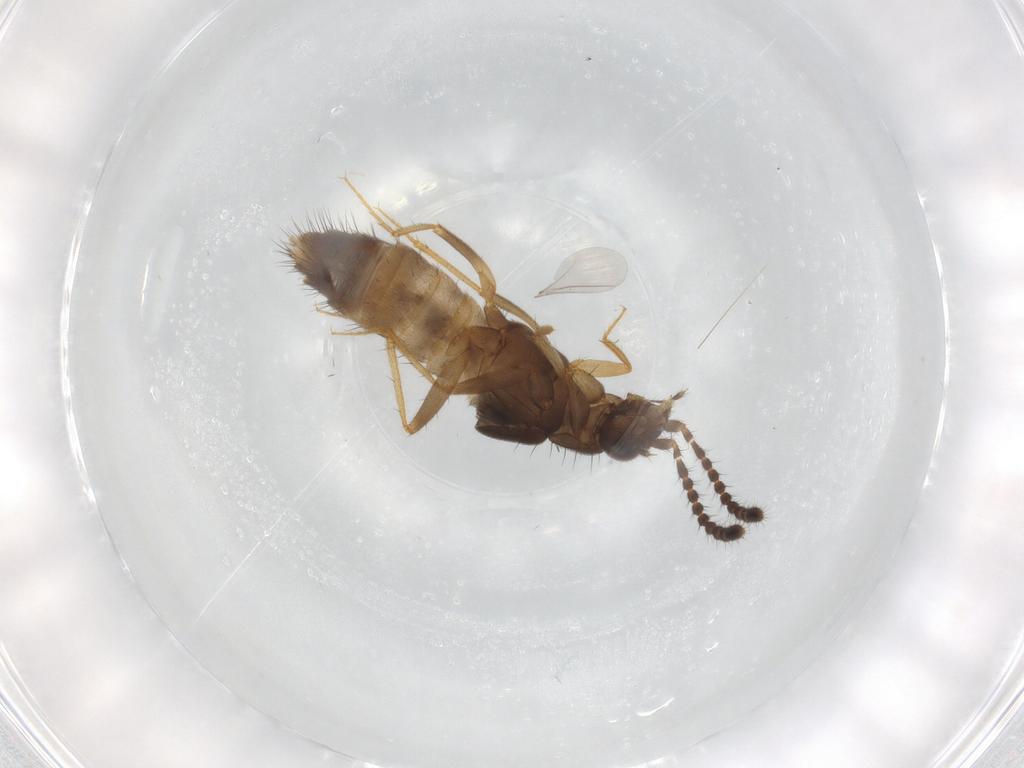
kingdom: Animalia
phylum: Arthropoda
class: Insecta
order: Coleoptera
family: Staphylinidae
